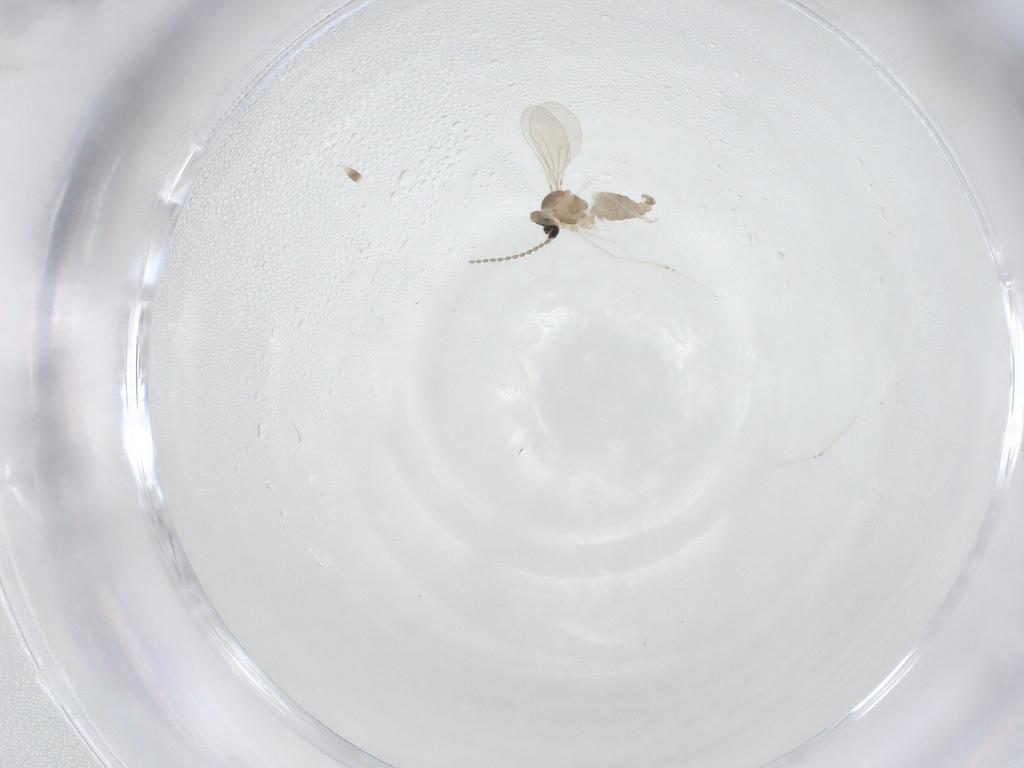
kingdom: Animalia
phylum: Arthropoda
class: Insecta
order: Diptera
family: Cecidomyiidae
